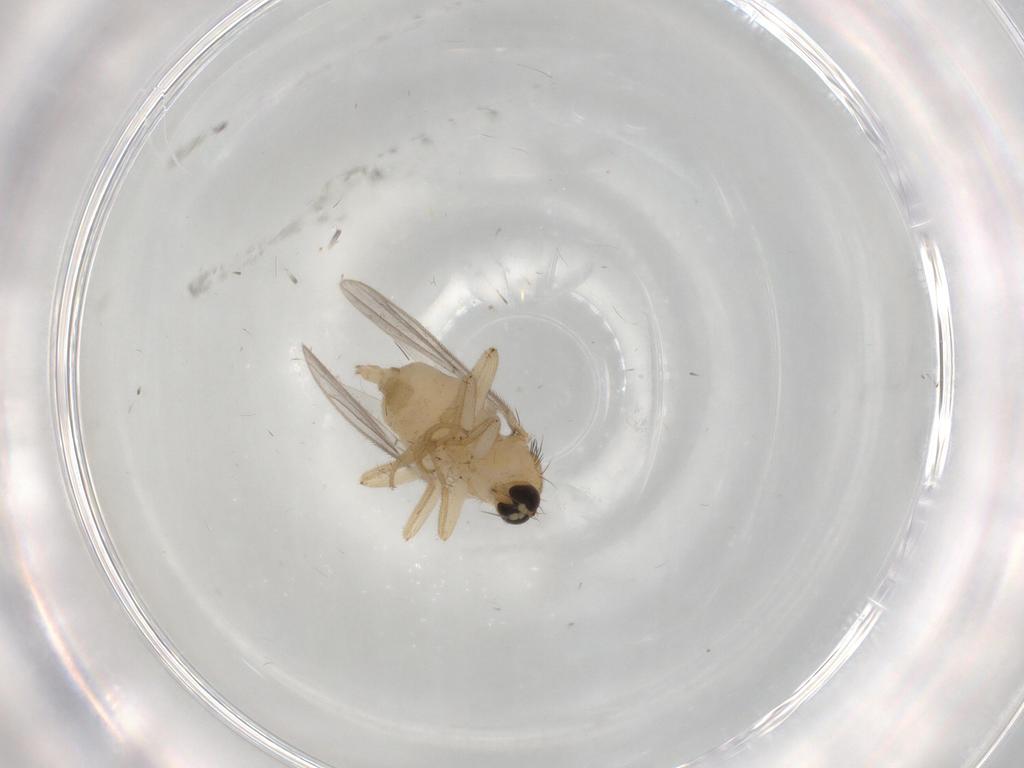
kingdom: Animalia
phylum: Arthropoda
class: Insecta
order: Diptera
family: Hybotidae
